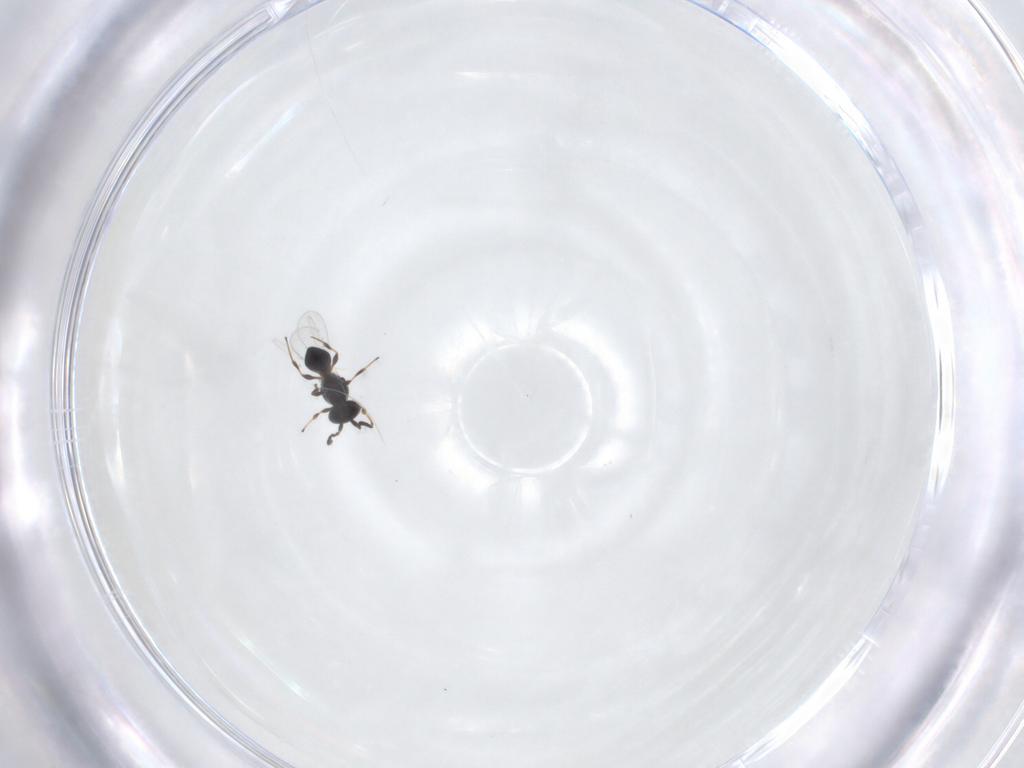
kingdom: Animalia
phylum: Arthropoda
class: Insecta
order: Hymenoptera
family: Platygastridae
